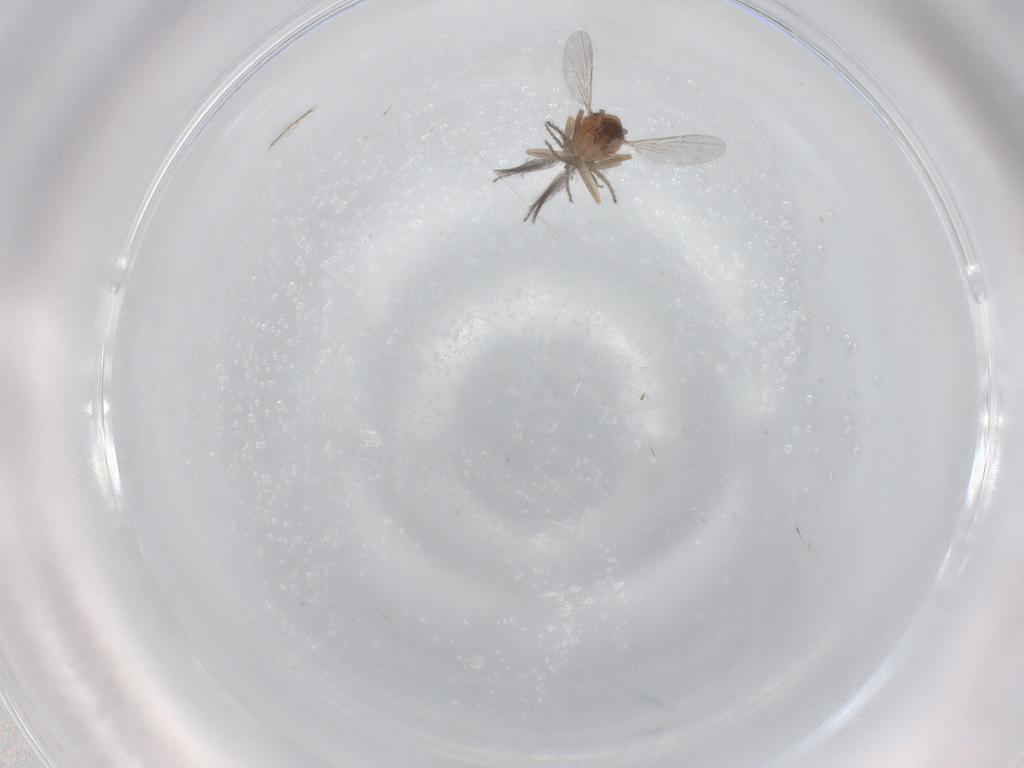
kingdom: Animalia
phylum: Arthropoda
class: Insecta
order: Diptera
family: Ceratopogonidae
